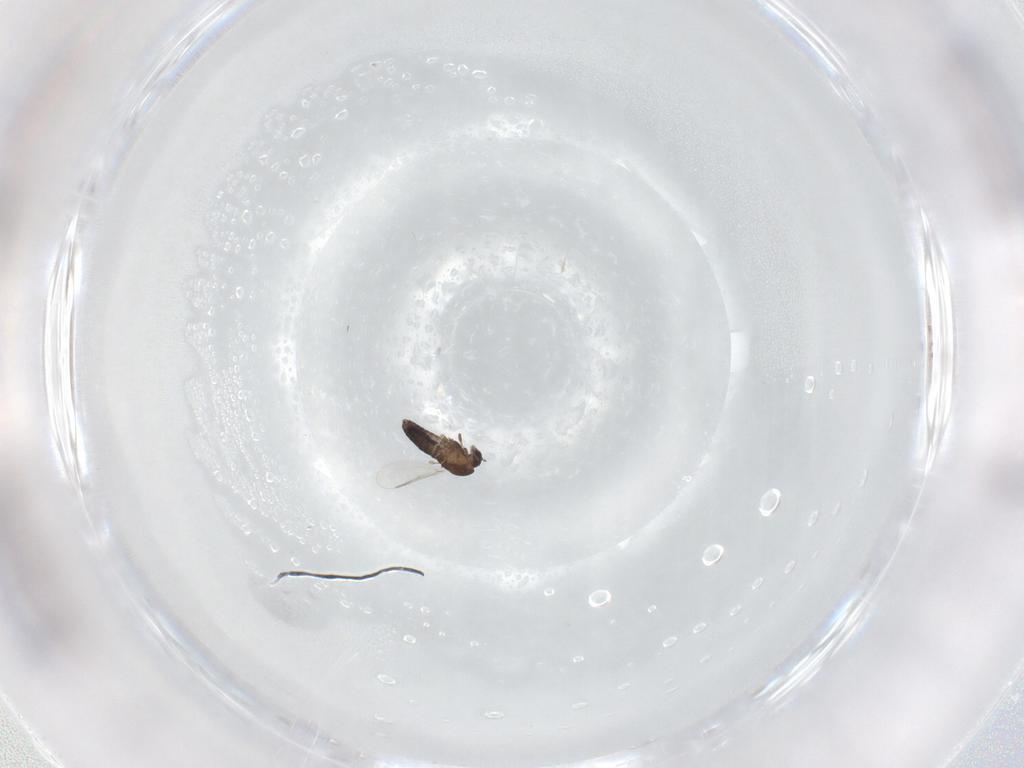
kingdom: Animalia
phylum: Arthropoda
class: Insecta
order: Diptera
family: Chironomidae
